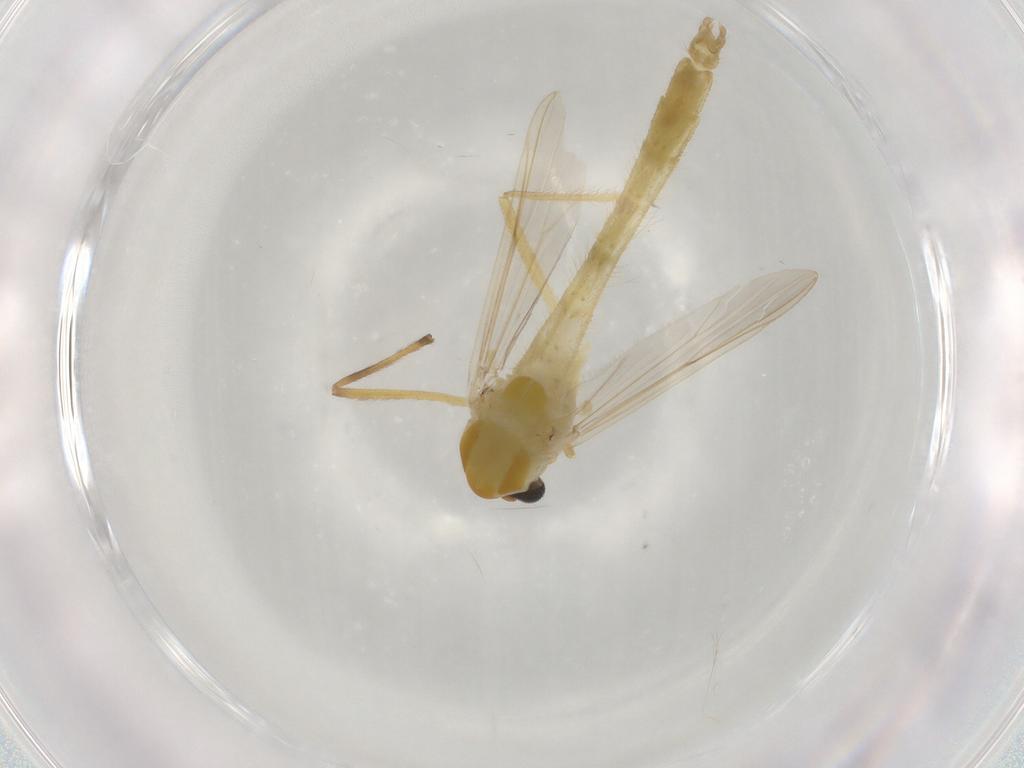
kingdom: Animalia
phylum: Arthropoda
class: Insecta
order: Diptera
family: Chironomidae
